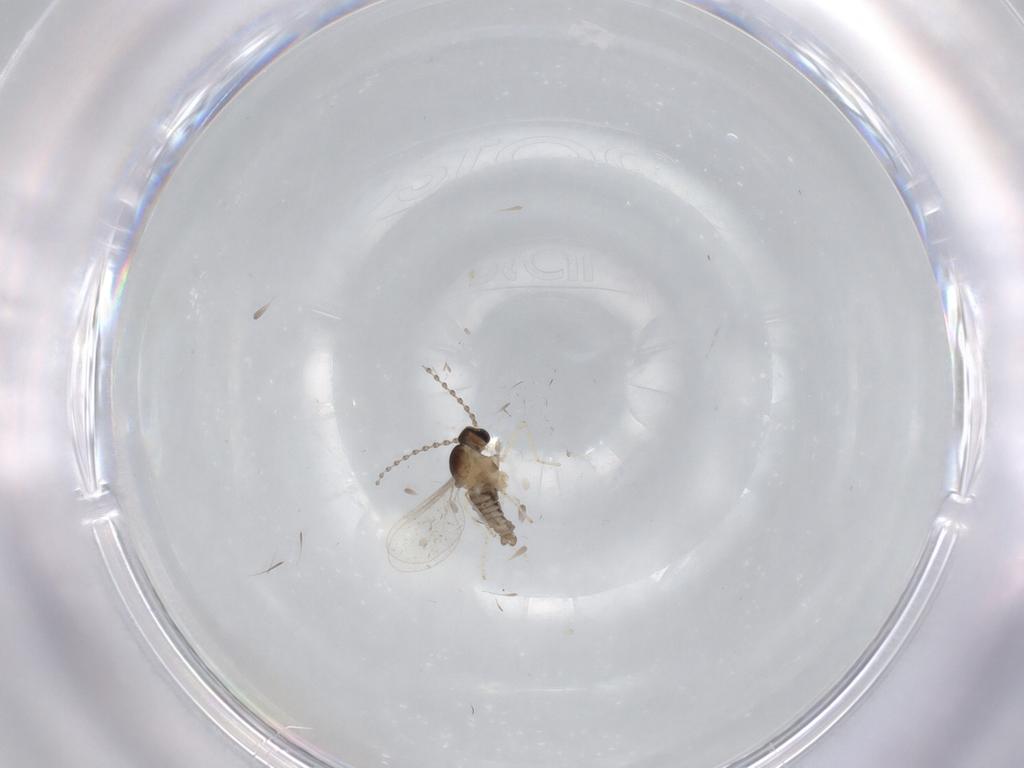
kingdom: Animalia
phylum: Arthropoda
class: Insecta
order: Diptera
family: Cecidomyiidae
